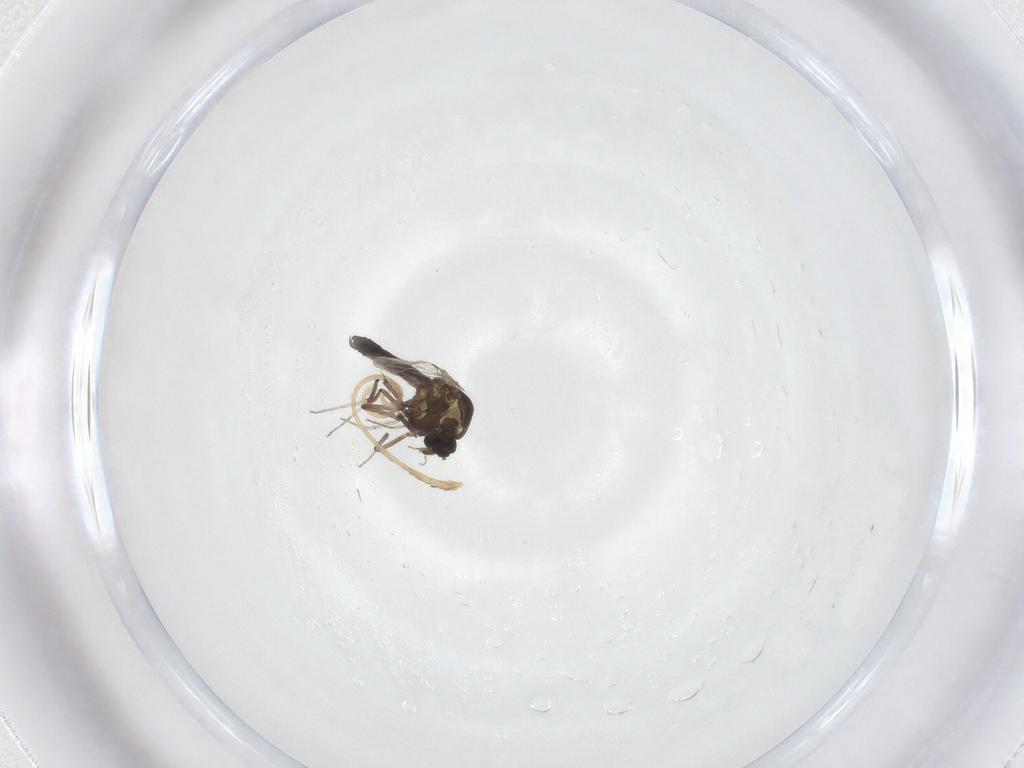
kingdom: Animalia
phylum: Arthropoda
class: Insecta
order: Diptera
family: Ceratopogonidae
